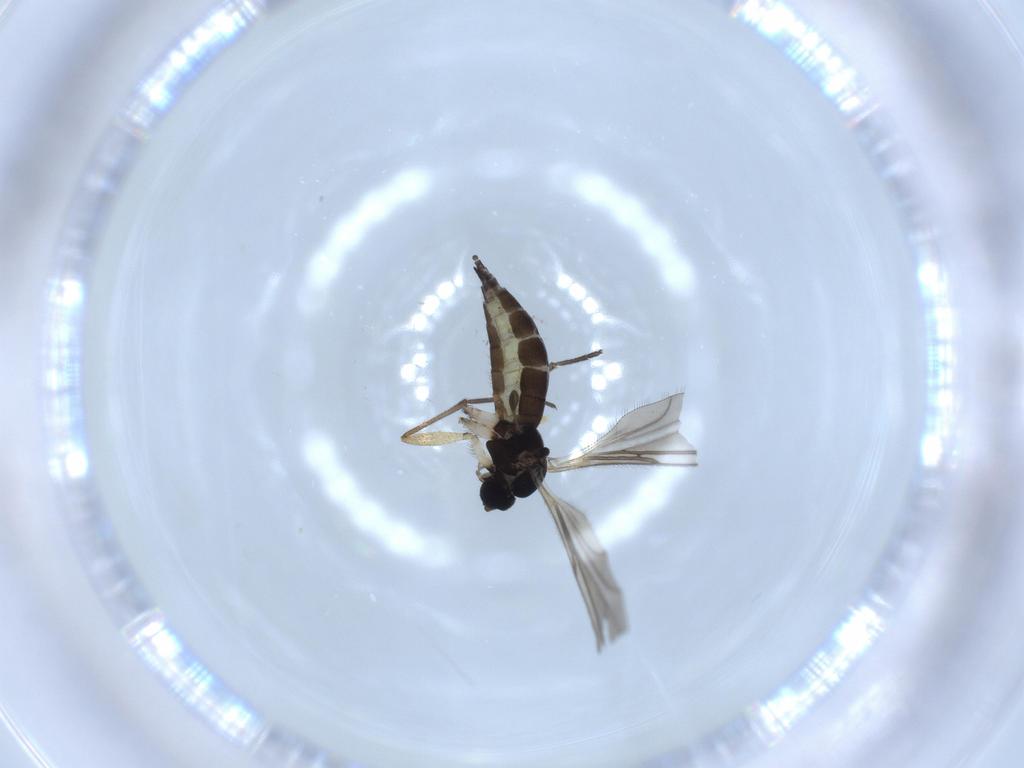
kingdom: Animalia
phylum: Arthropoda
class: Insecta
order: Diptera
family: Sciaridae
